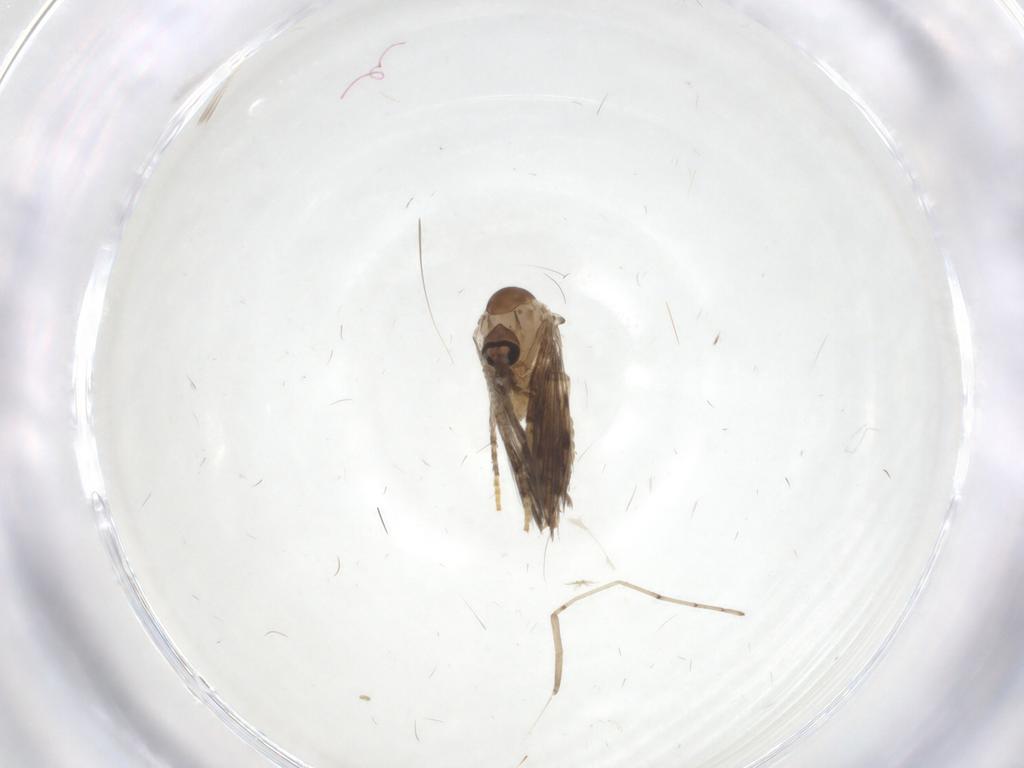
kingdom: Animalia
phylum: Arthropoda
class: Insecta
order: Diptera
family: Psychodidae
